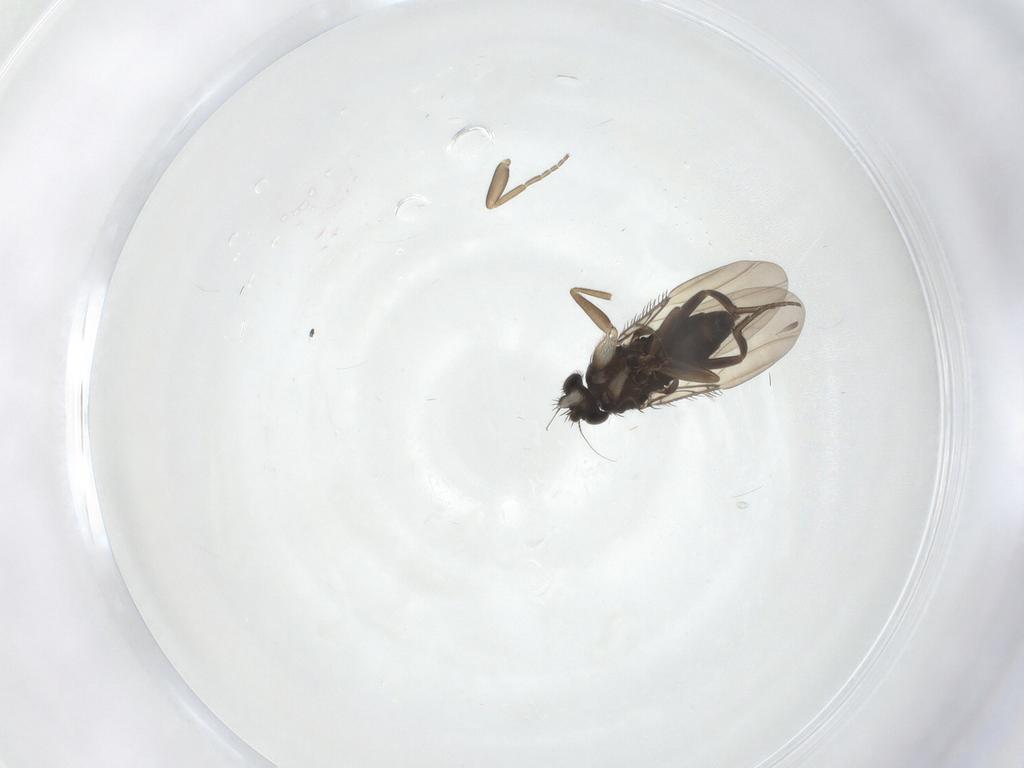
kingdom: Animalia
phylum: Arthropoda
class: Insecta
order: Diptera
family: Phoridae
